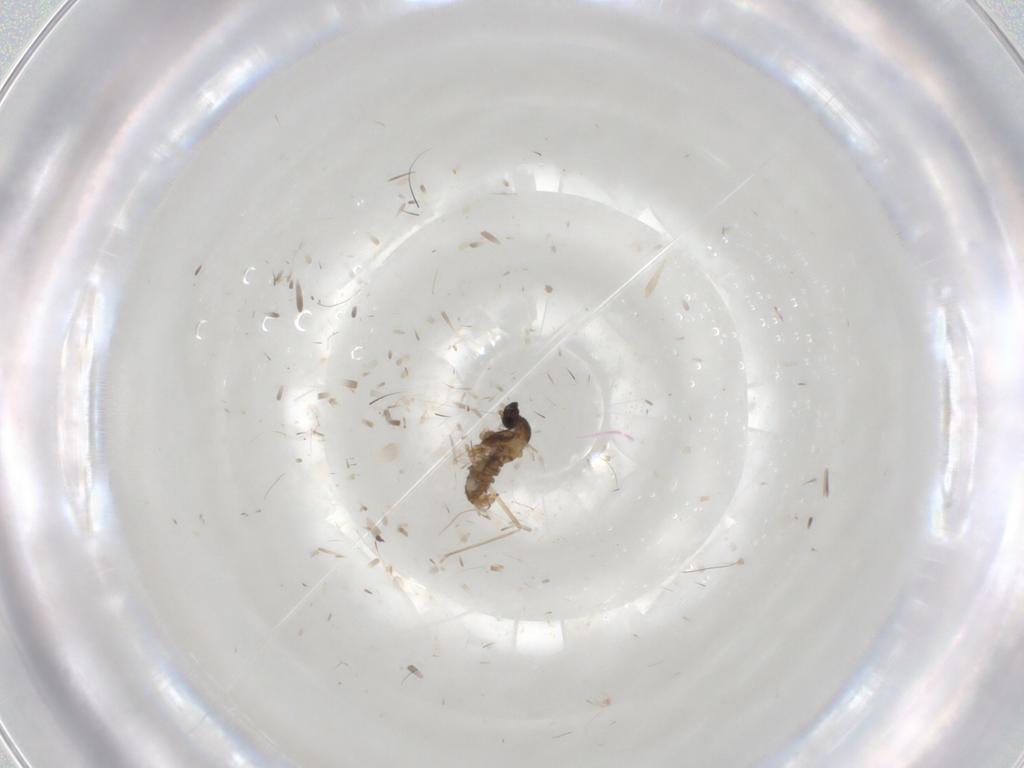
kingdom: Animalia
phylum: Arthropoda
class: Insecta
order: Diptera
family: Cecidomyiidae
